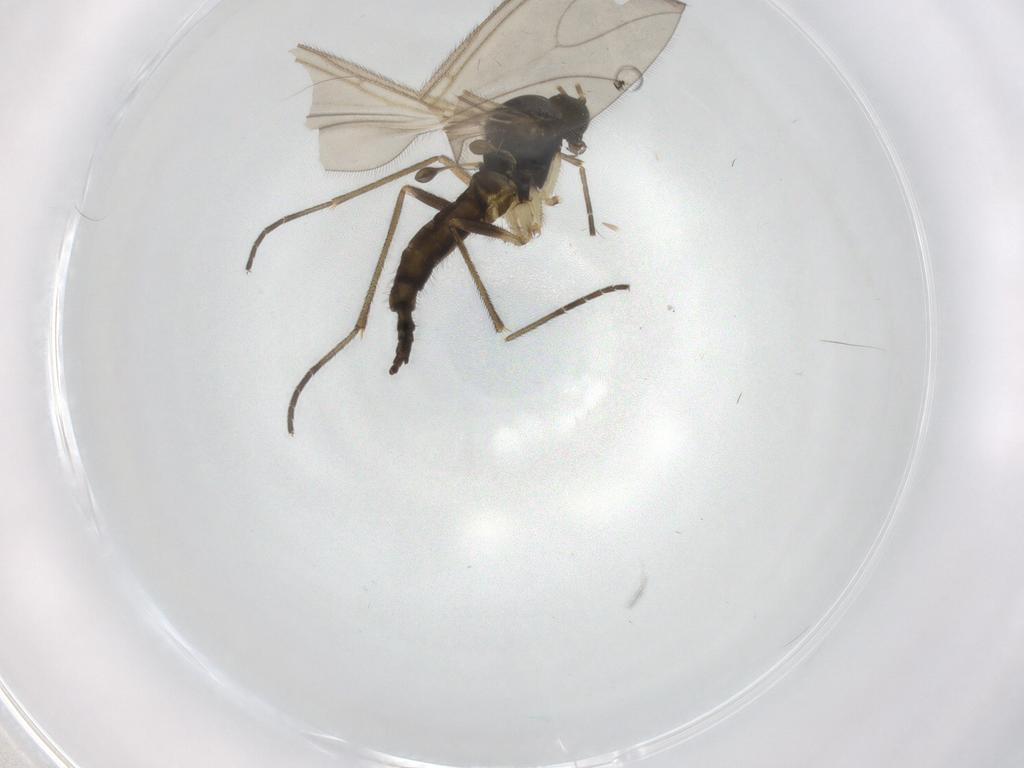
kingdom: Animalia
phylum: Arthropoda
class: Insecta
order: Diptera
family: Sciaridae
